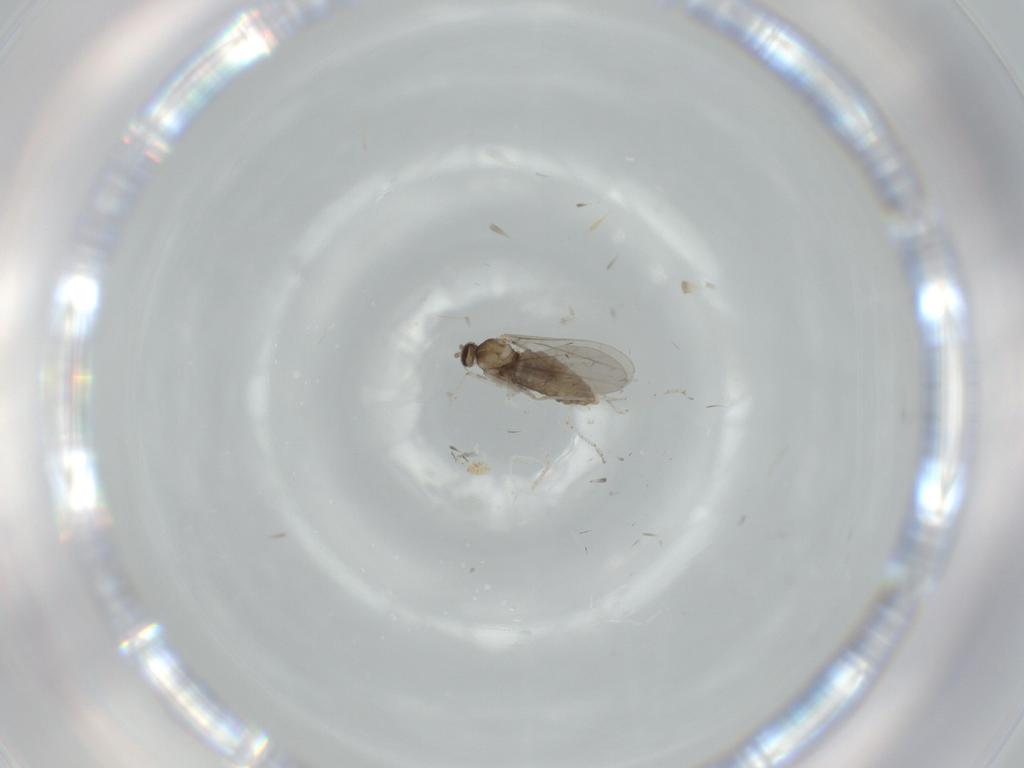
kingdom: Animalia
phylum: Arthropoda
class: Insecta
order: Diptera
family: Phoridae
